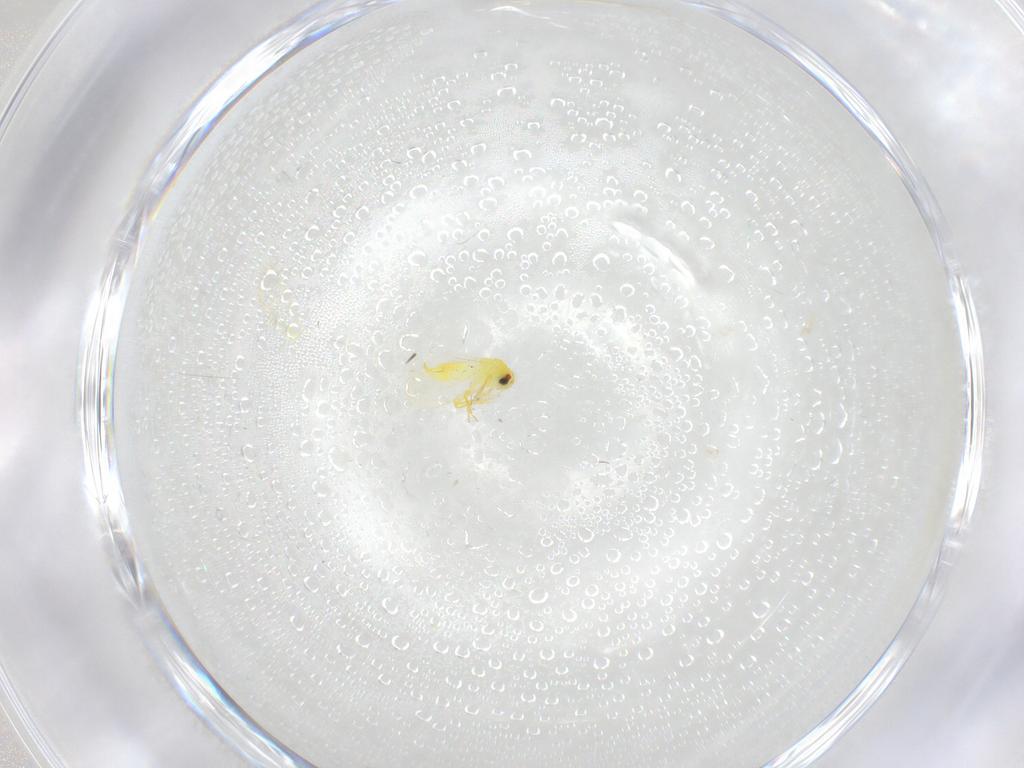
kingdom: Animalia
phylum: Arthropoda
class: Insecta
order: Hemiptera
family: Aleyrodidae
